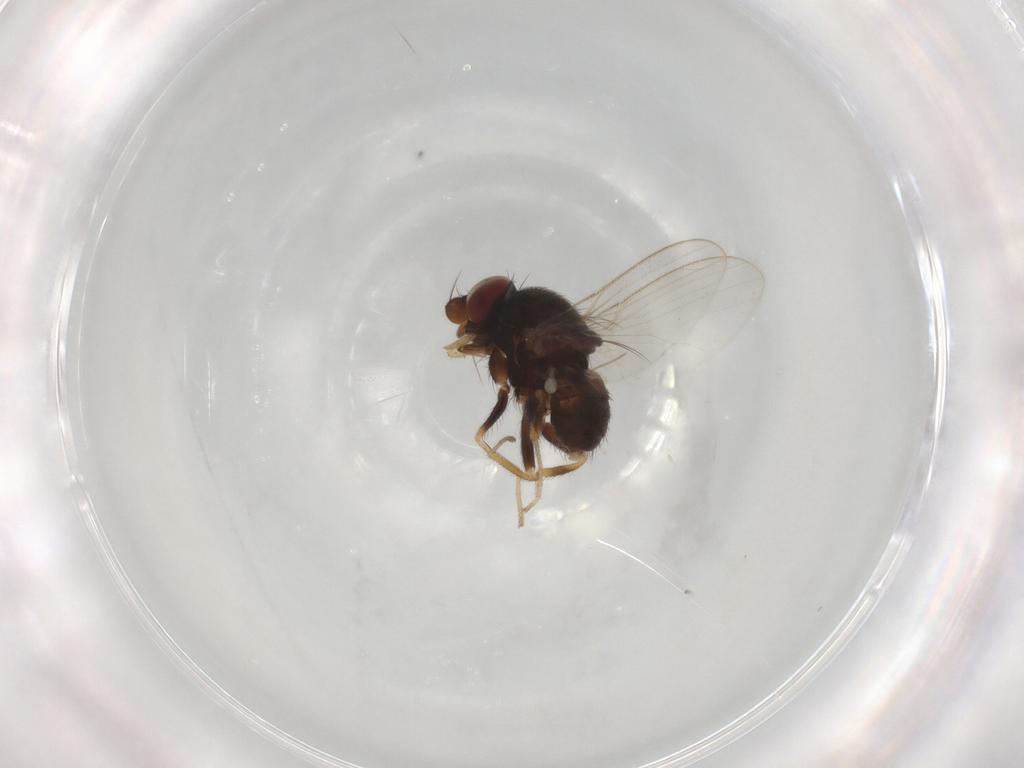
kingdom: Animalia
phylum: Arthropoda
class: Insecta
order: Diptera
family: Milichiidae
